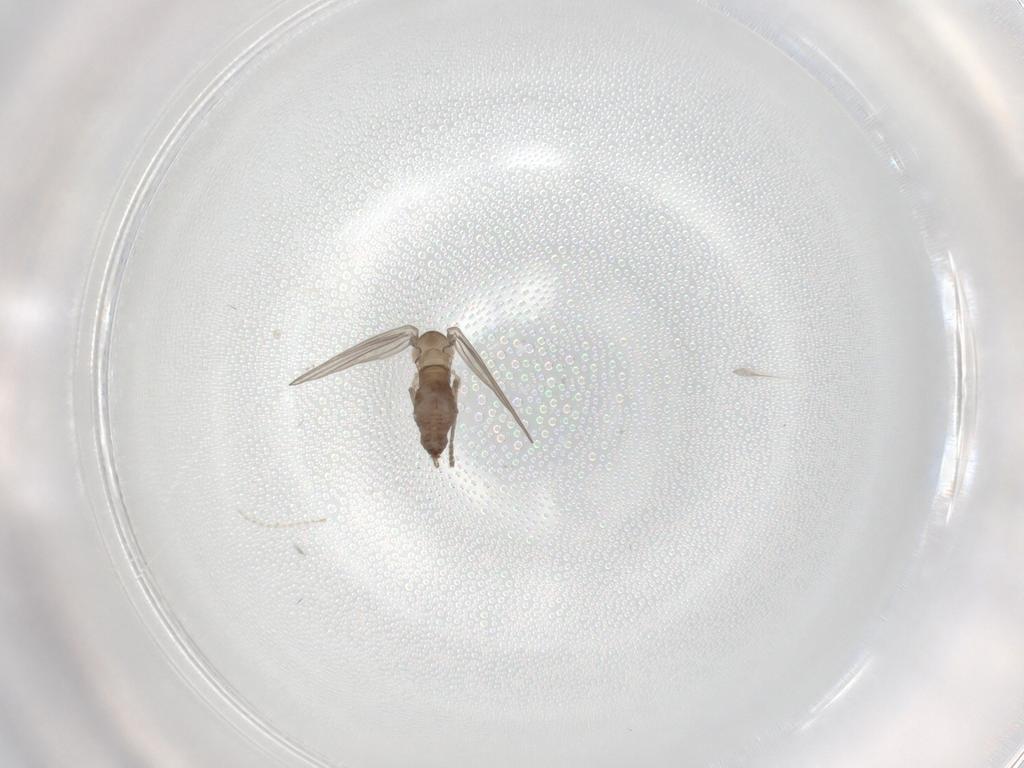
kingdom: Animalia
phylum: Arthropoda
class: Insecta
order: Diptera
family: Psychodidae
